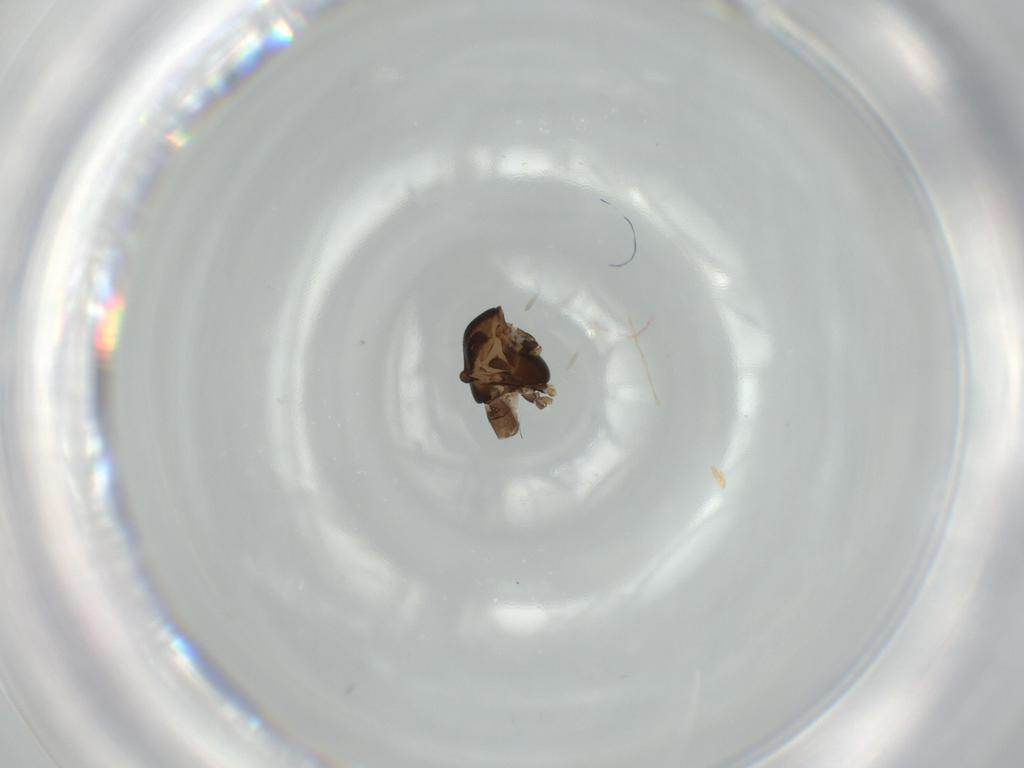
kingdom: Animalia
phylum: Arthropoda
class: Insecta
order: Diptera
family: Chironomidae
